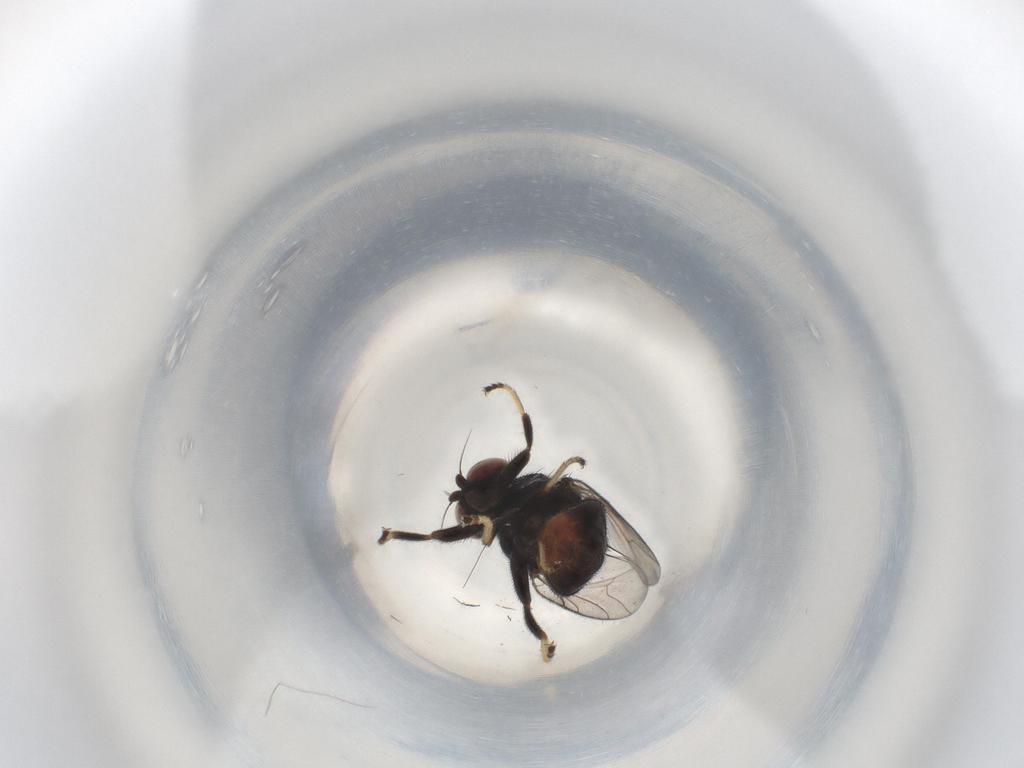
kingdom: Animalia
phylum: Arthropoda
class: Insecta
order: Diptera
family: Chloropidae
